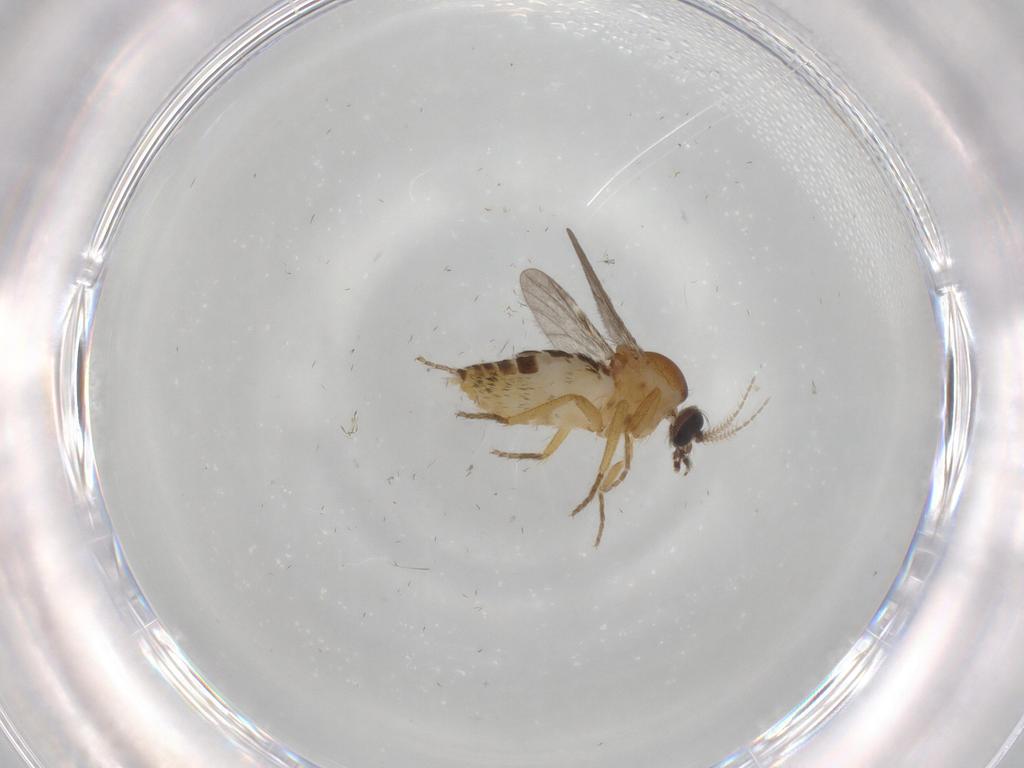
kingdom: Animalia
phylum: Arthropoda
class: Insecta
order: Diptera
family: Ceratopogonidae
